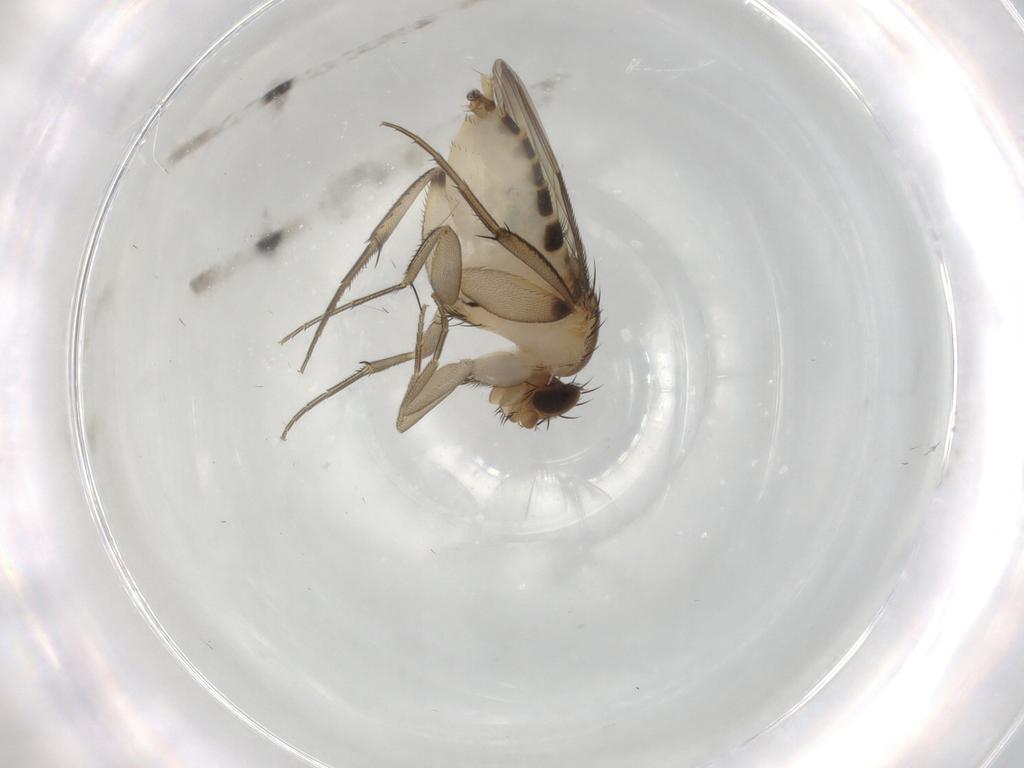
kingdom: Animalia
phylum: Arthropoda
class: Insecta
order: Diptera
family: Phoridae
